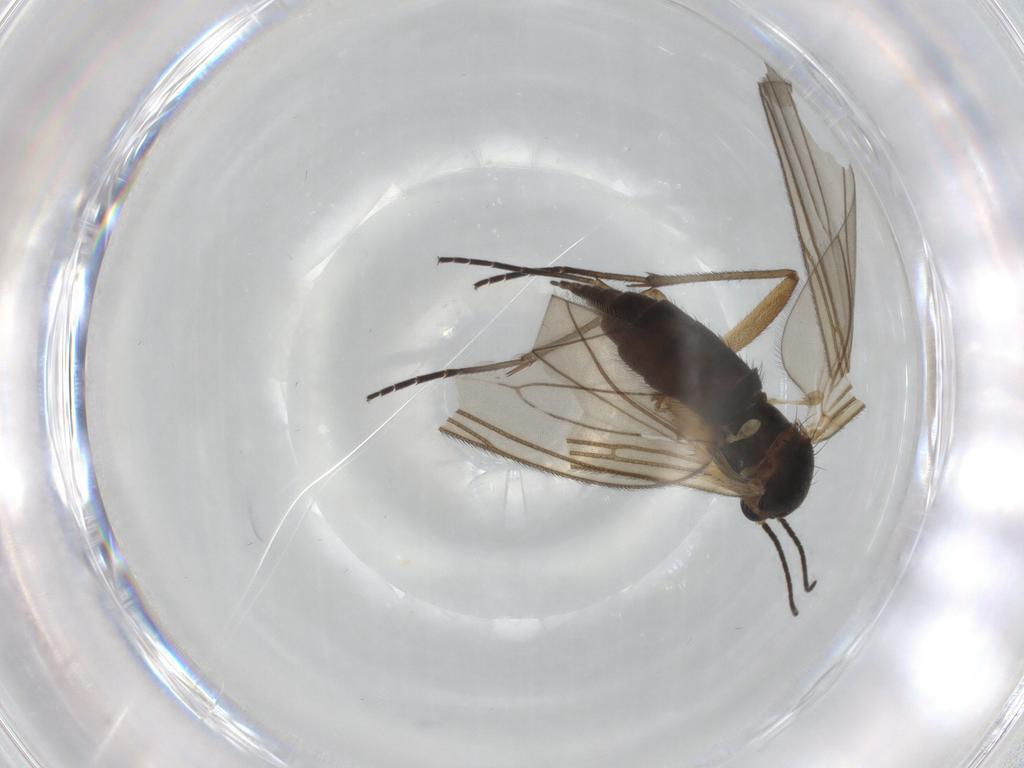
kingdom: Animalia
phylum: Arthropoda
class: Insecta
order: Diptera
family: Sciaridae
